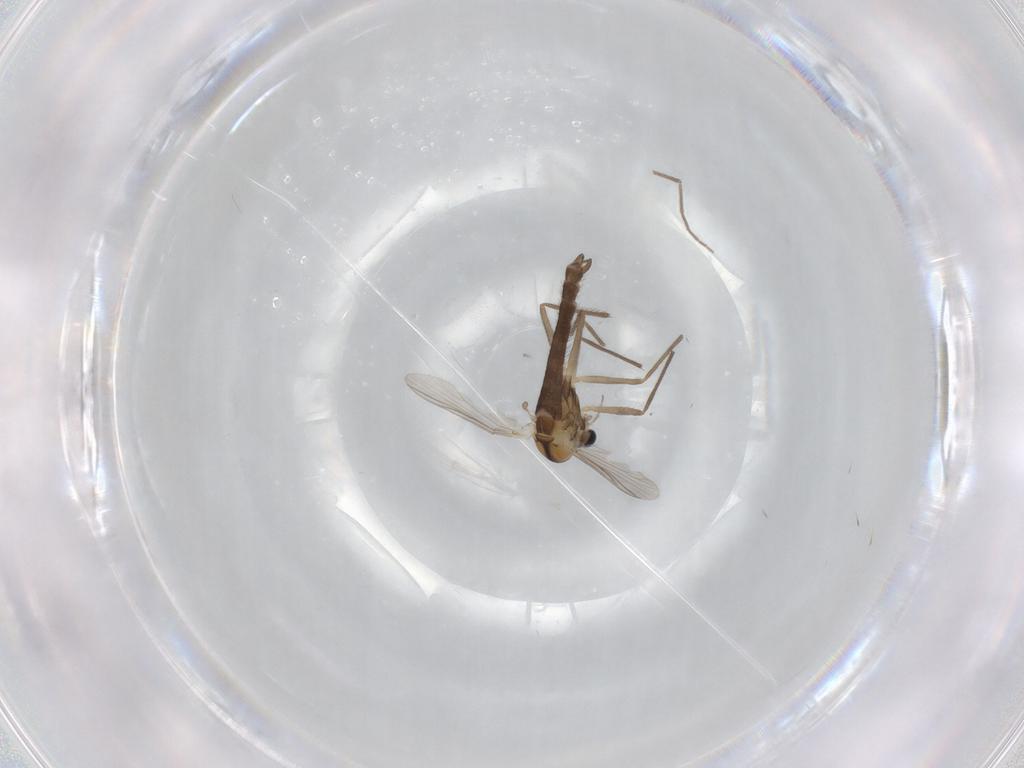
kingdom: Animalia
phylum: Arthropoda
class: Insecta
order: Diptera
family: Chironomidae
